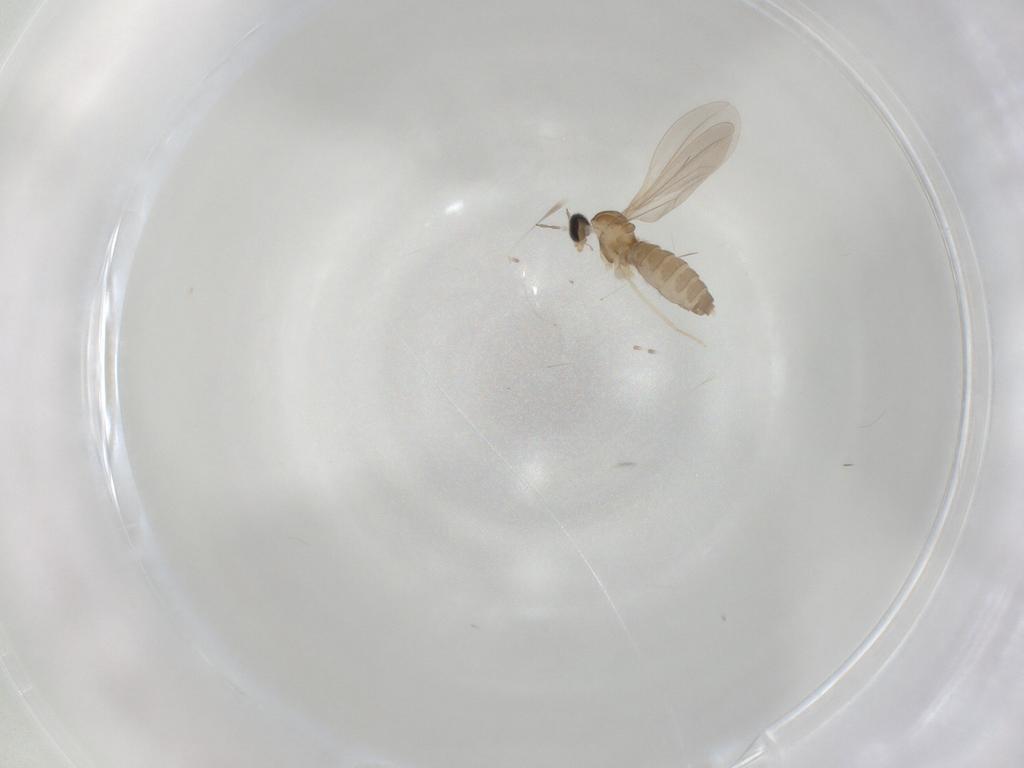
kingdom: Animalia
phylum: Arthropoda
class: Insecta
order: Diptera
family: Cecidomyiidae
